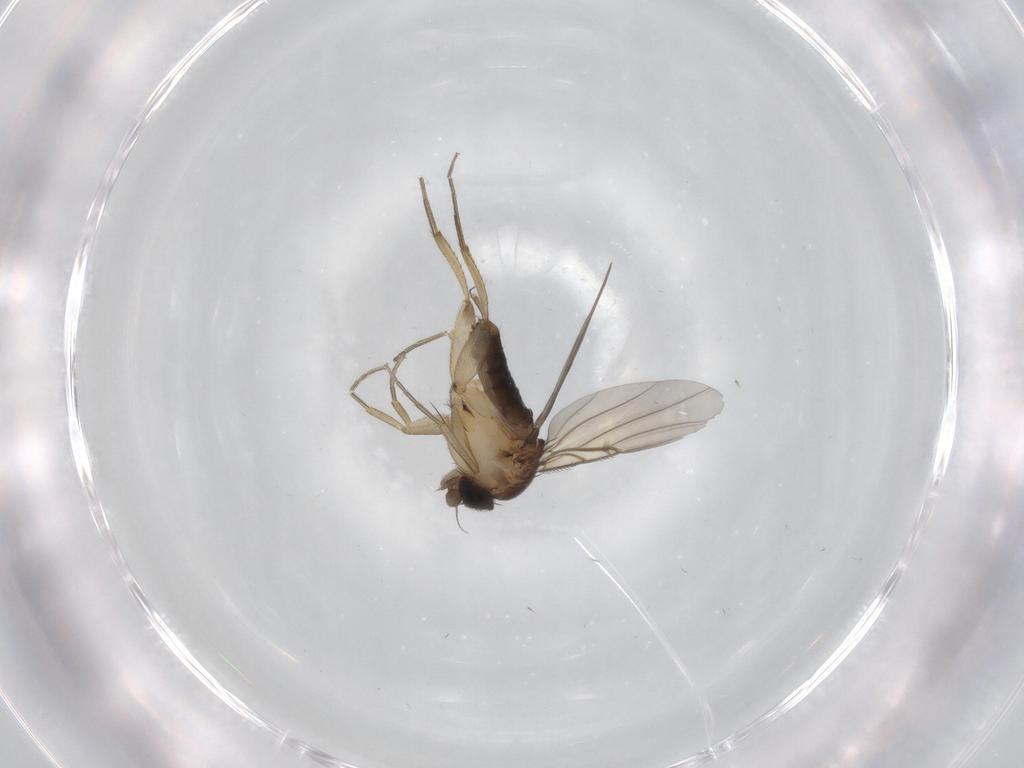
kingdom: Animalia
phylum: Arthropoda
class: Insecta
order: Diptera
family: Phoridae
